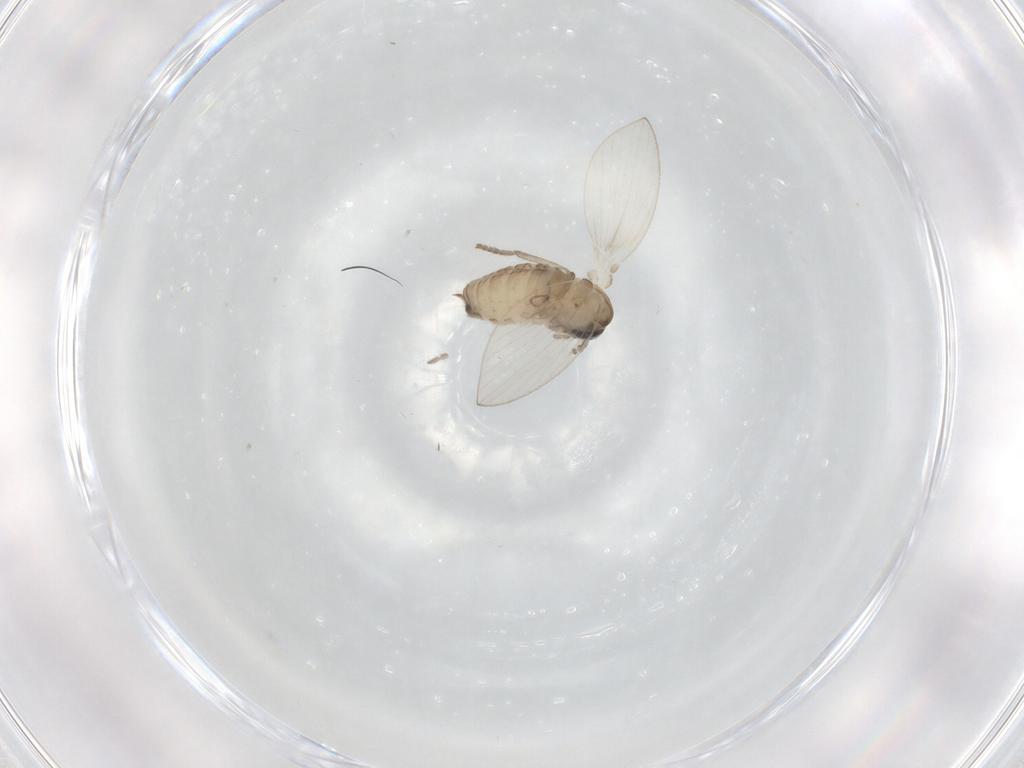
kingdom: Animalia
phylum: Arthropoda
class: Insecta
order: Diptera
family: Psychodidae
